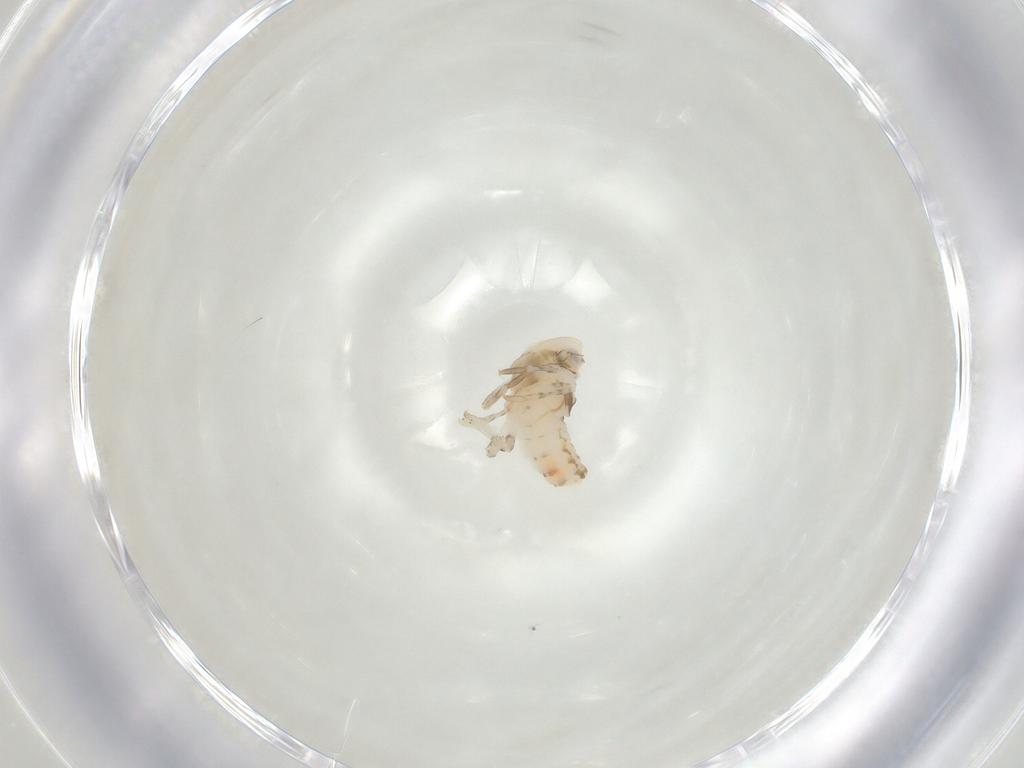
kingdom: Animalia
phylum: Arthropoda
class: Insecta
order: Hemiptera
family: Lophopidae
